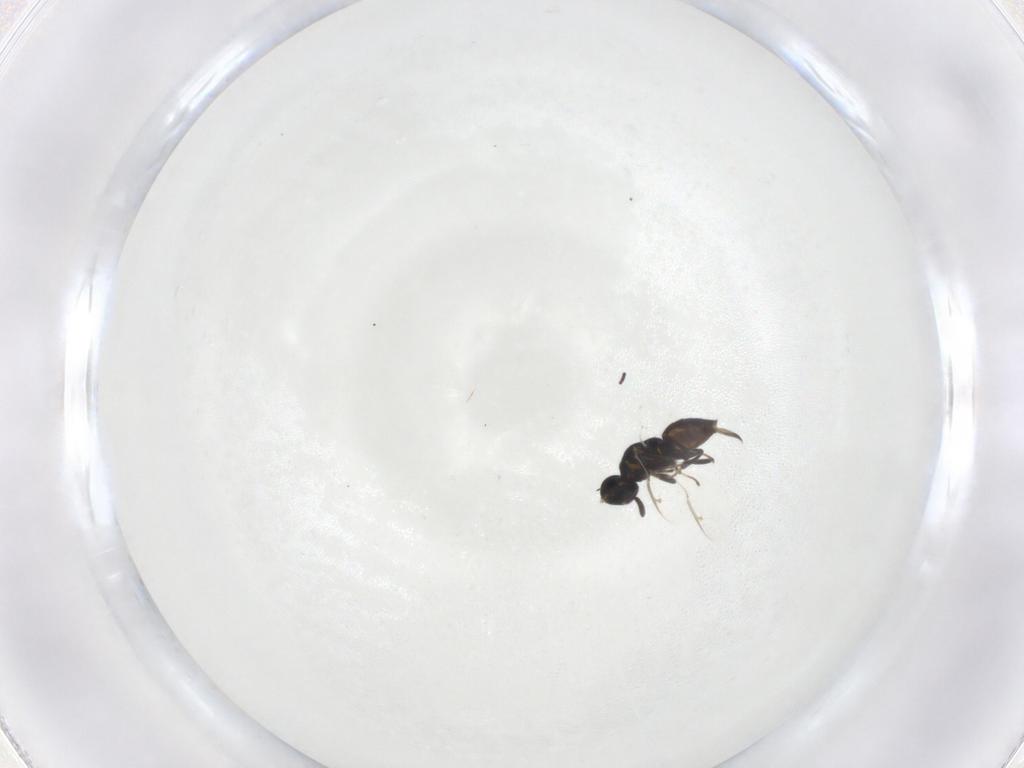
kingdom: Animalia
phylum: Arthropoda
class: Insecta
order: Hymenoptera
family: Pteromalidae
